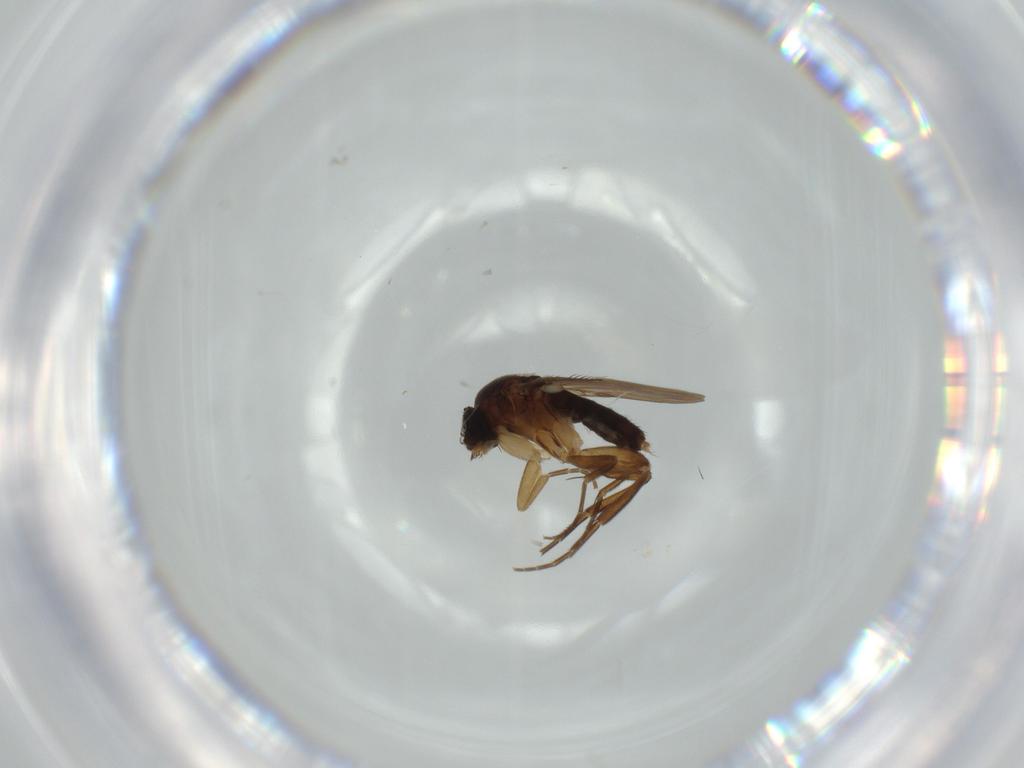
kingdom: Animalia
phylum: Arthropoda
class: Insecta
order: Diptera
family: Phoridae
